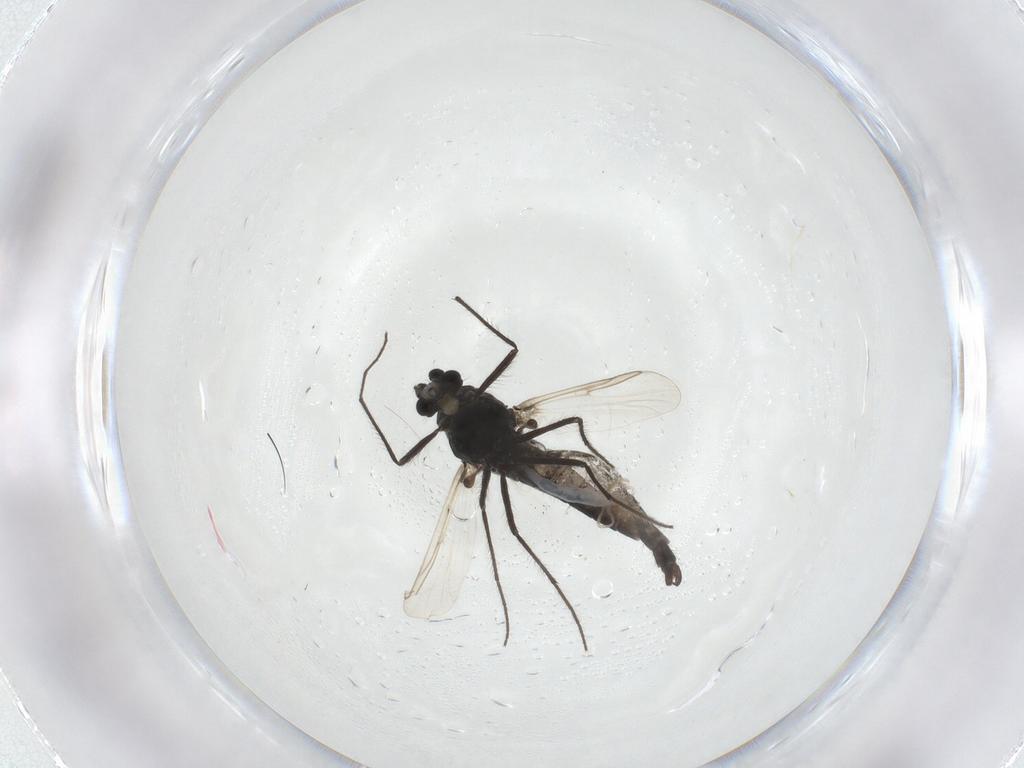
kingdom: Animalia
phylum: Arthropoda
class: Insecta
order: Diptera
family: Chironomidae
